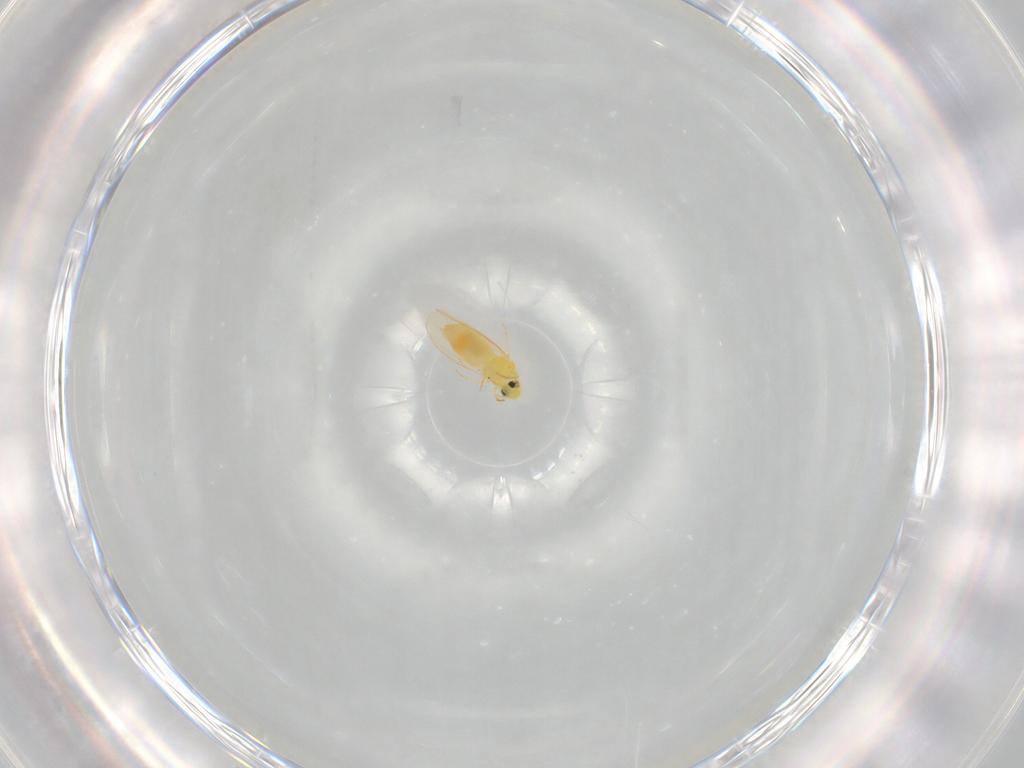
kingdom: Animalia
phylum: Arthropoda
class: Insecta
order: Hemiptera
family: Aleyrodidae
